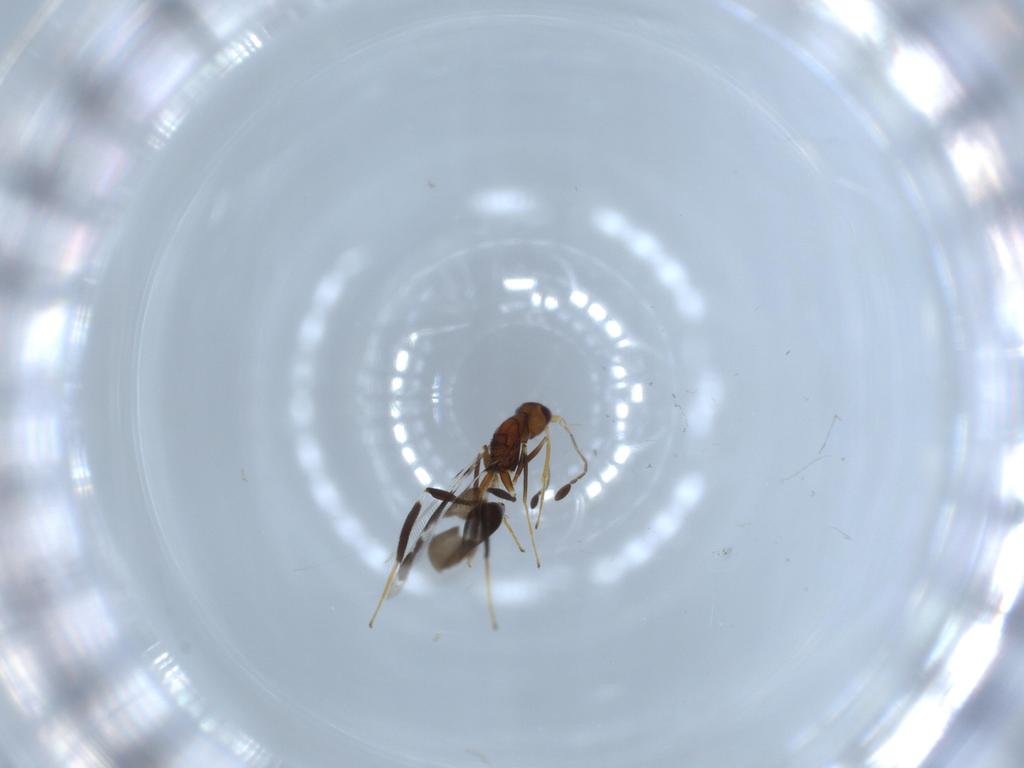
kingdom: Animalia
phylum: Arthropoda
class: Insecta
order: Hymenoptera
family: Mymaridae
